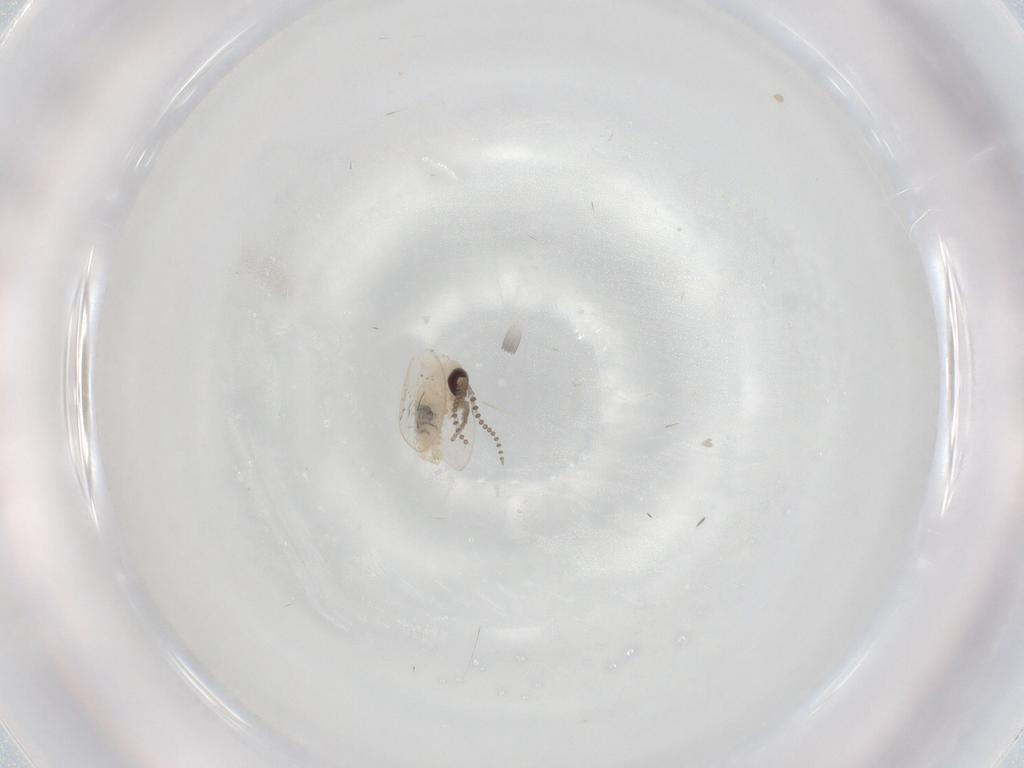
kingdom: Animalia
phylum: Arthropoda
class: Insecta
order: Diptera
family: Psychodidae
